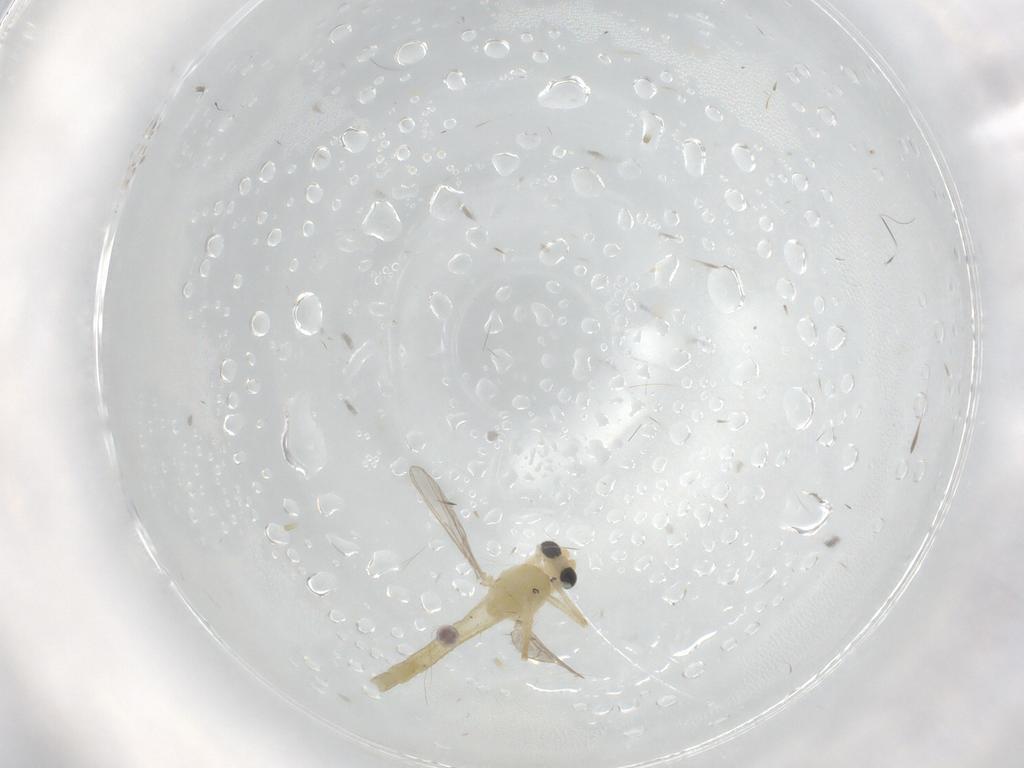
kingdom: Animalia
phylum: Arthropoda
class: Insecta
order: Diptera
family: Chironomidae
